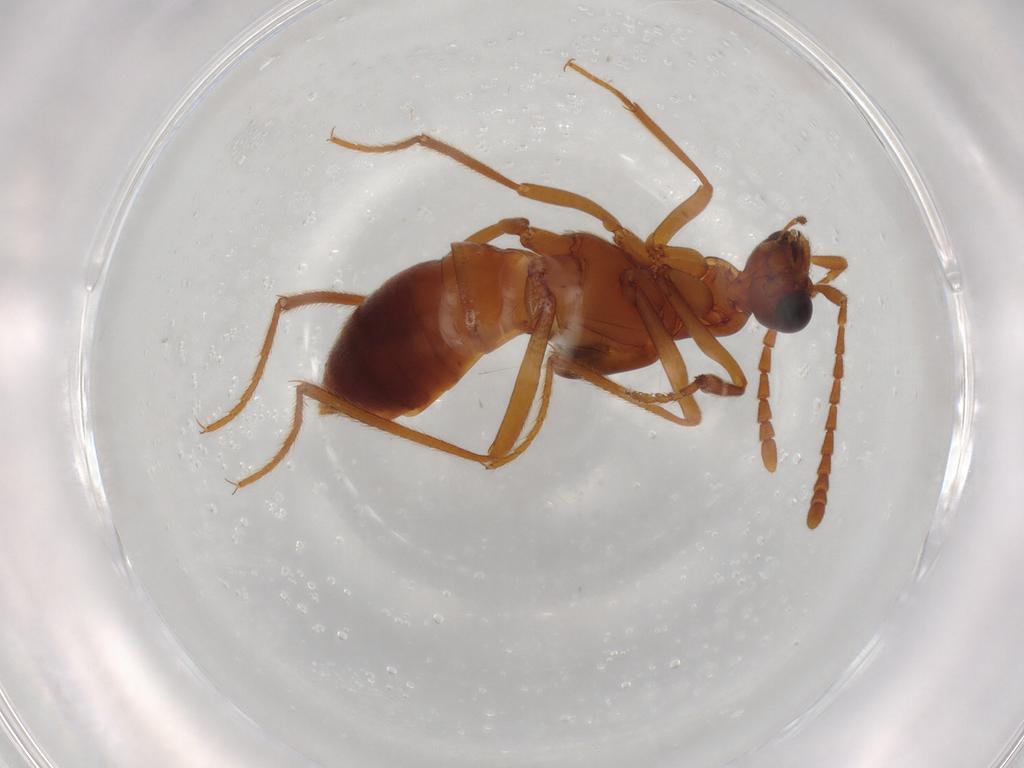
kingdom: Animalia
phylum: Arthropoda
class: Insecta
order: Coleoptera
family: Staphylinidae
